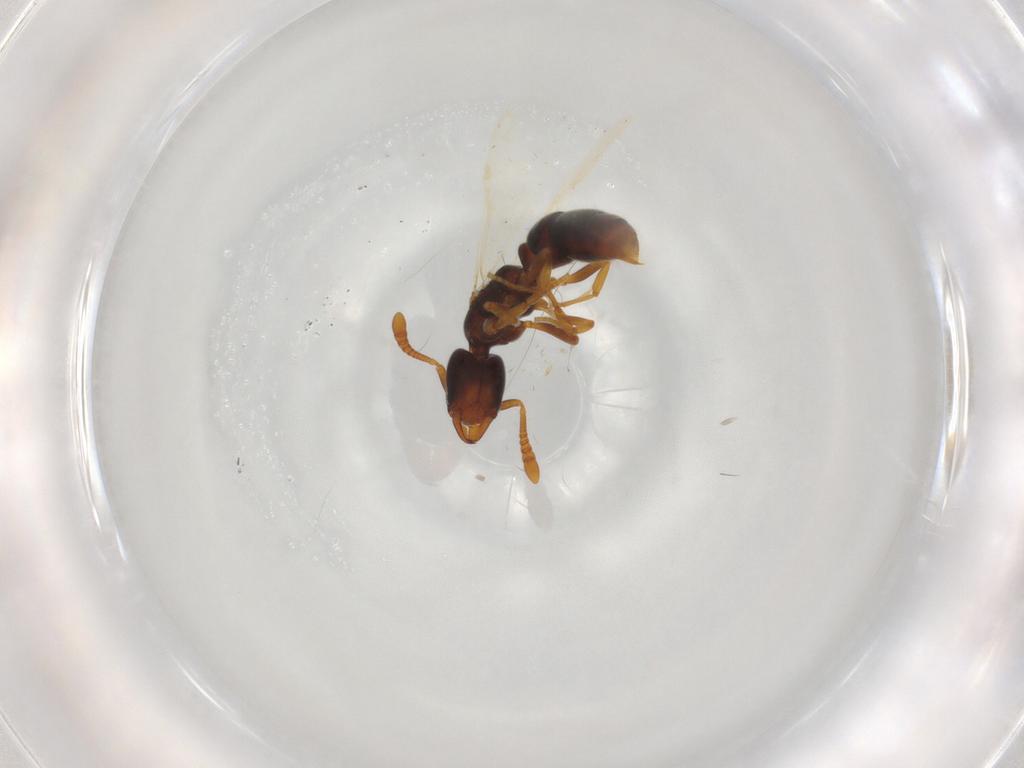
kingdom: Animalia
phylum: Arthropoda
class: Insecta
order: Hymenoptera
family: Formicidae
